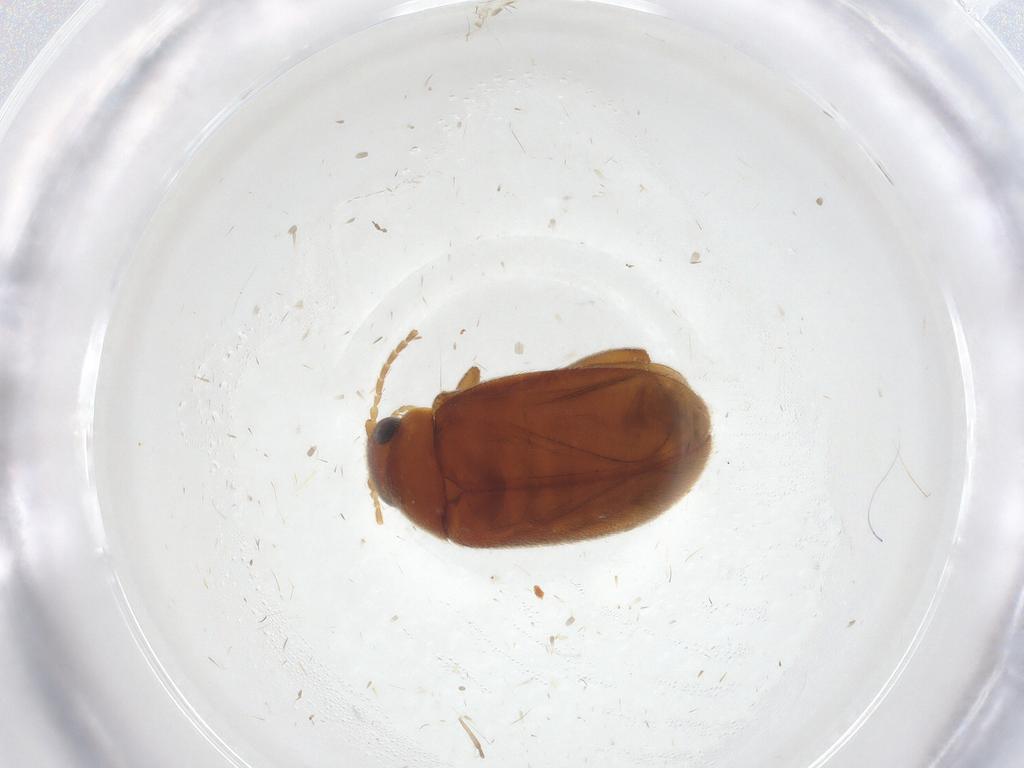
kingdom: Animalia
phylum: Arthropoda
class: Insecta
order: Coleoptera
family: Scirtidae
